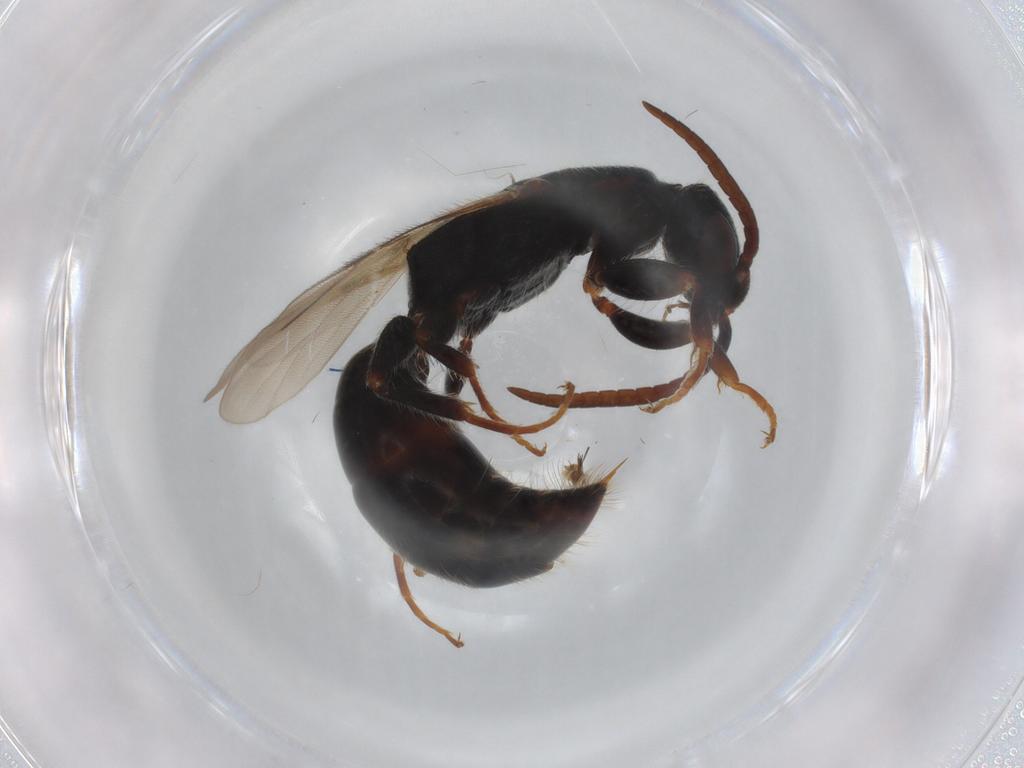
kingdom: Animalia
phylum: Arthropoda
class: Insecta
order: Hymenoptera
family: Bethylidae
